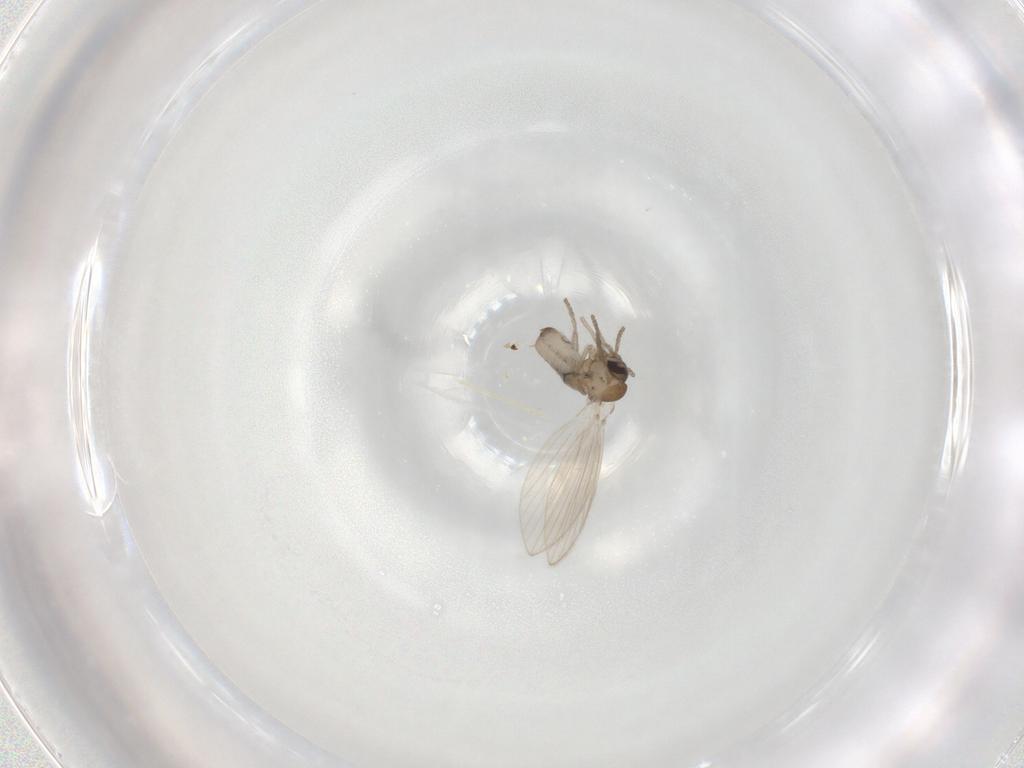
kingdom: Animalia
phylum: Arthropoda
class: Insecta
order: Diptera
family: Psychodidae
